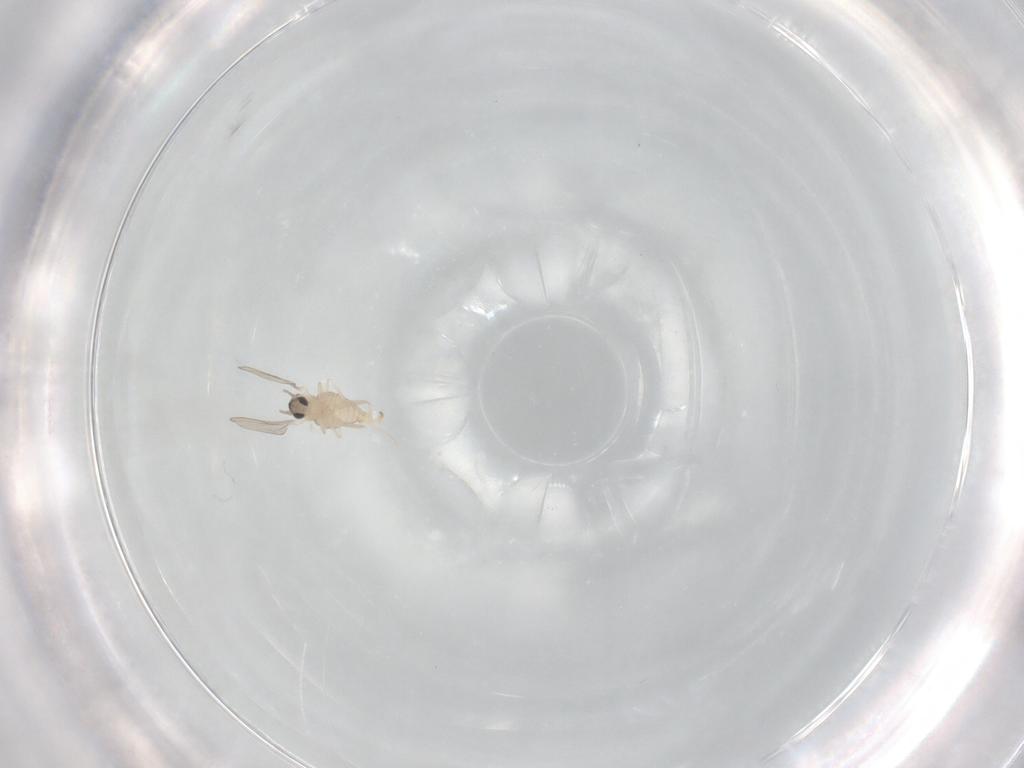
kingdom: Animalia
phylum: Arthropoda
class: Insecta
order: Diptera
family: Cecidomyiidae
